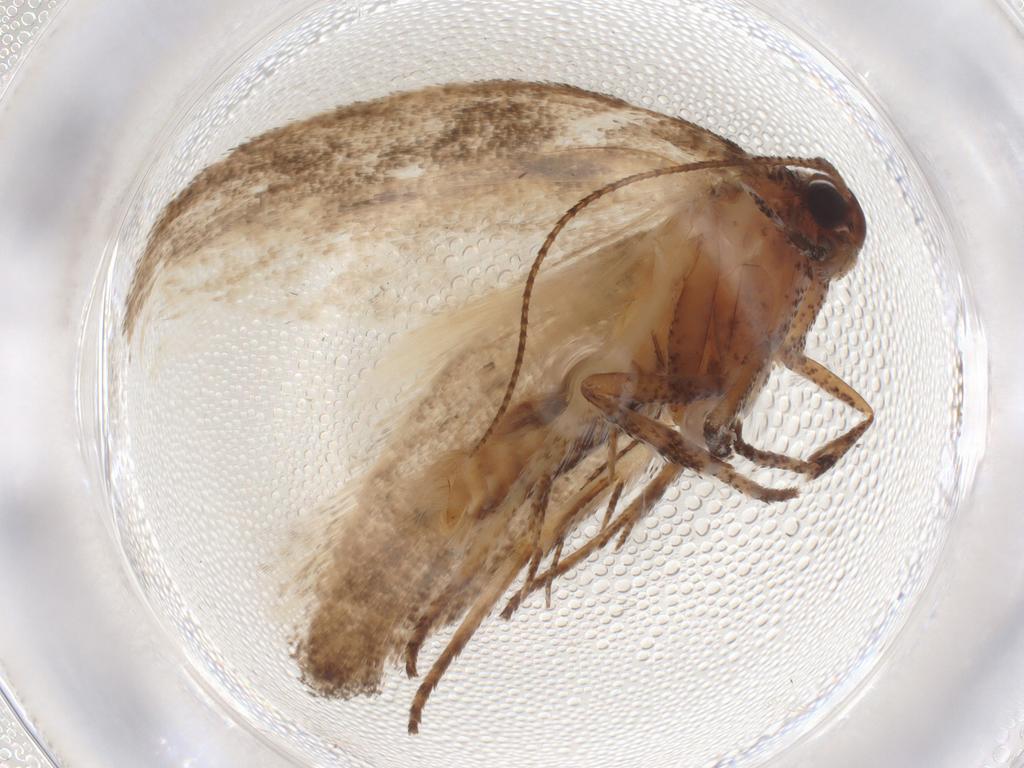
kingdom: Animalia
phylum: Arthropoda
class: Insecta
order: Lepidoptera
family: Cosmopterigidae
